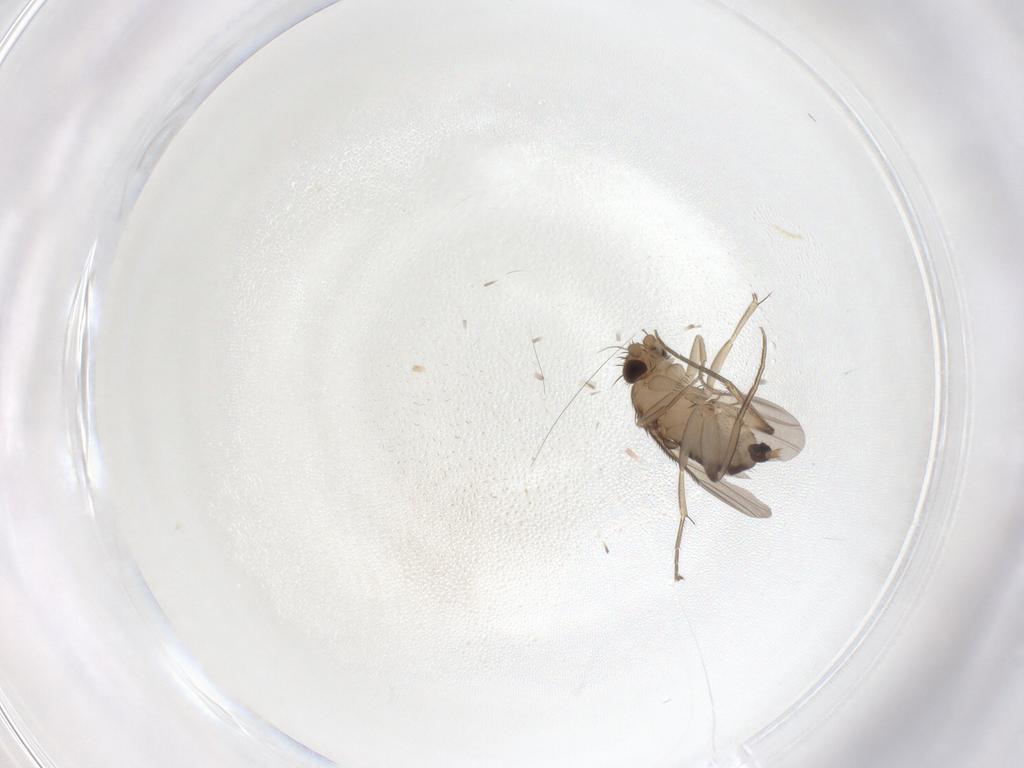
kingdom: Animalia
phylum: Arthropoda
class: Insecta
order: Diptera
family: Phoridae
